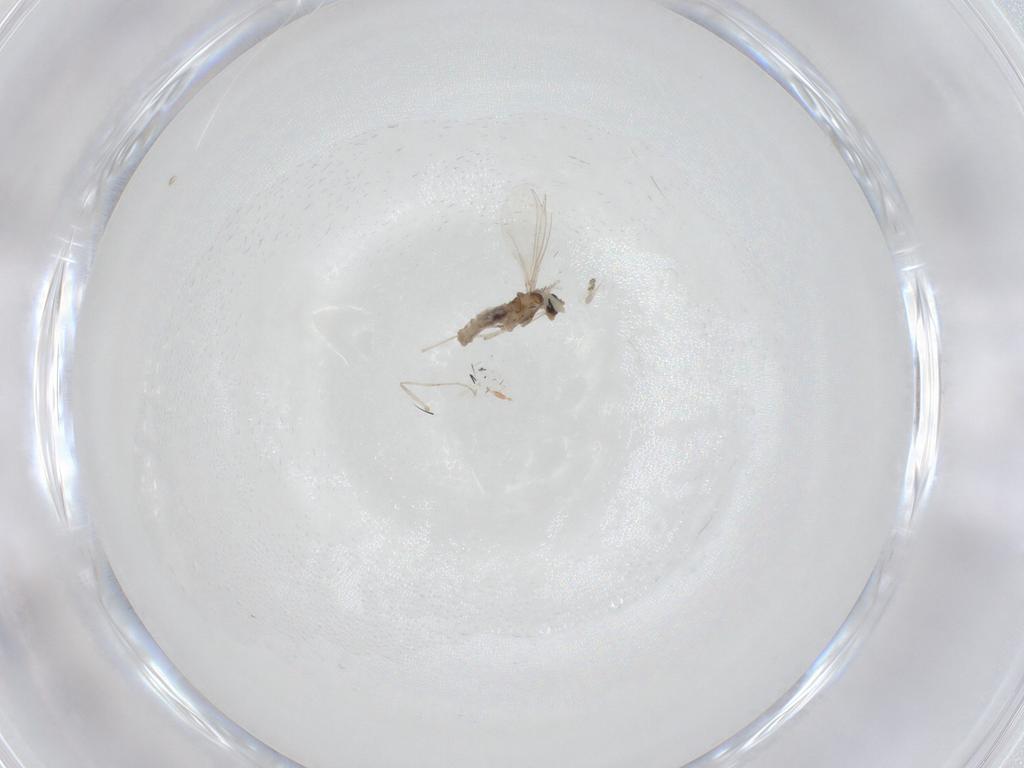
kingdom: Animalia
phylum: Arthropoda
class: Insecta
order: Diptera
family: Cecidomyiidae
